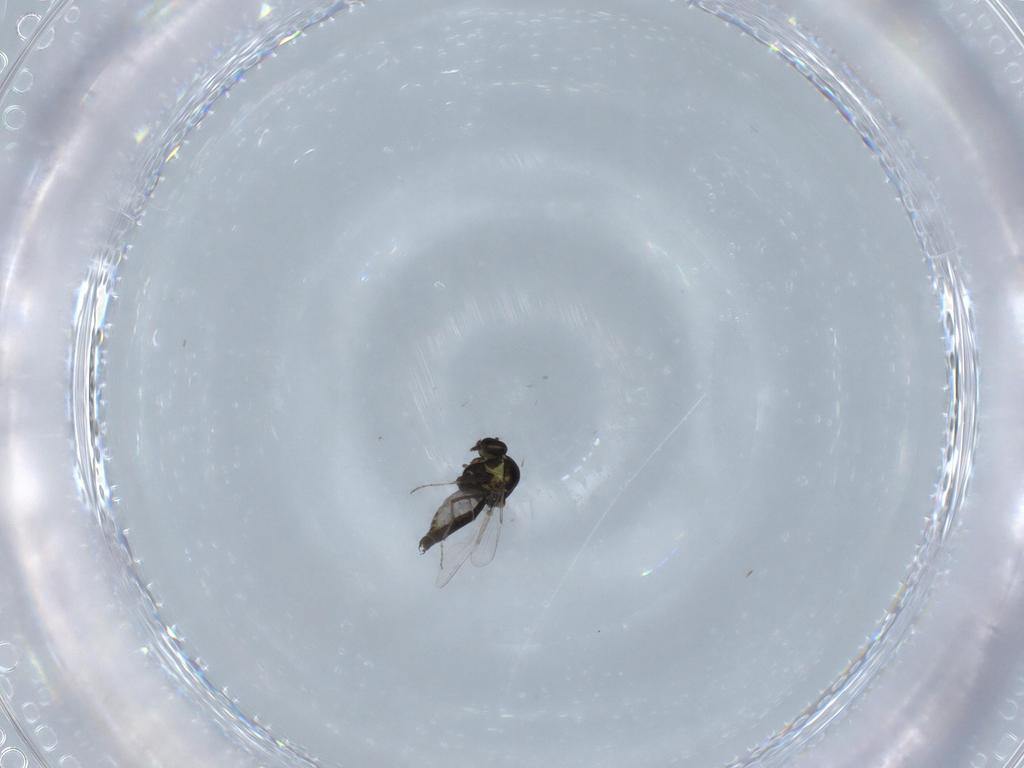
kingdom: Animalia
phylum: Arthropoda
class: Insecta
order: Diptera
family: Ceratopogonidae
